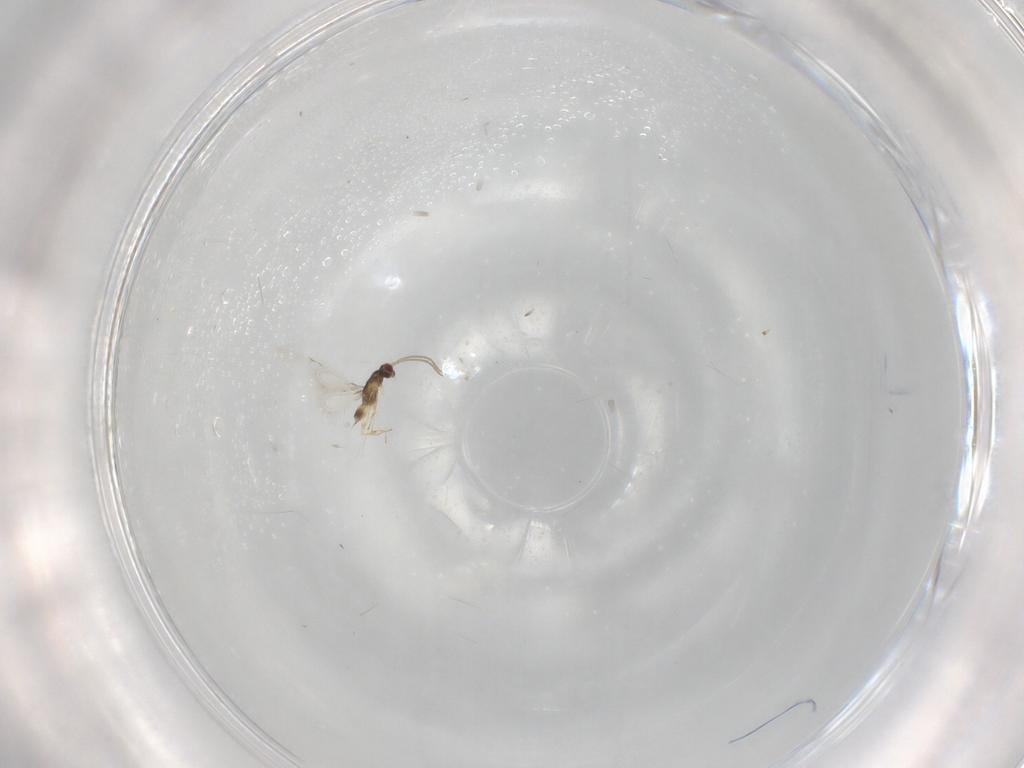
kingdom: Animalia
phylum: Arthropoda
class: Insecta
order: Hymenoptera
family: Mymaridae
